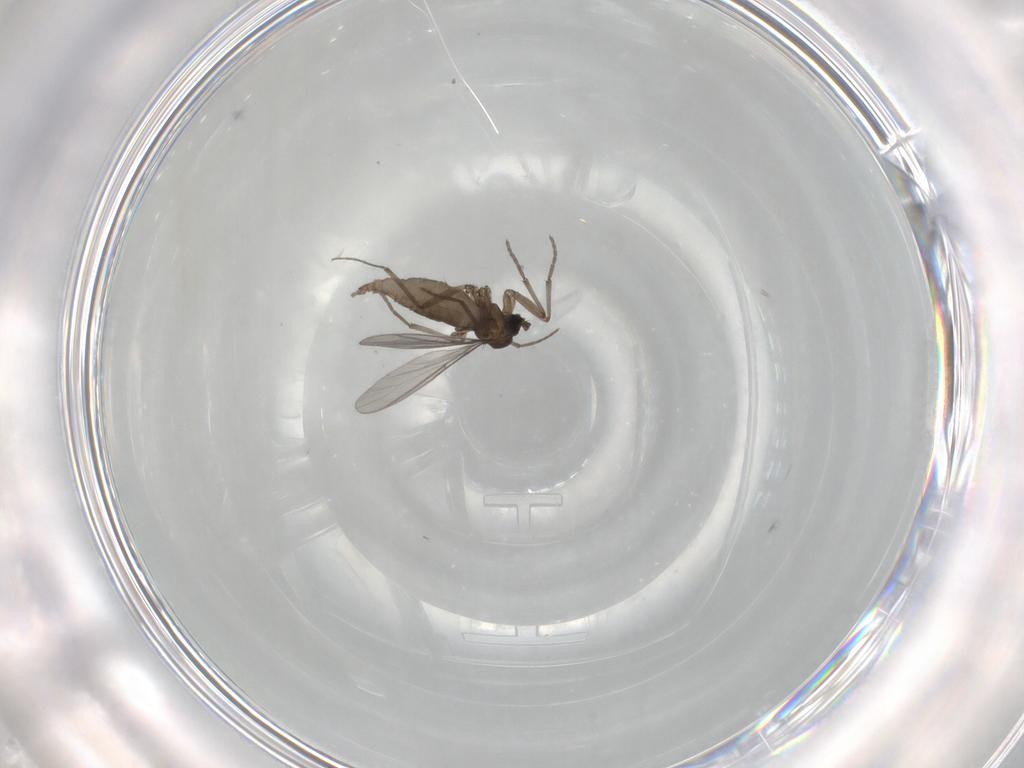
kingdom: Animalia
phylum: Arthropoda
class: Insecta
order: Diptera
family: Sciaridae
